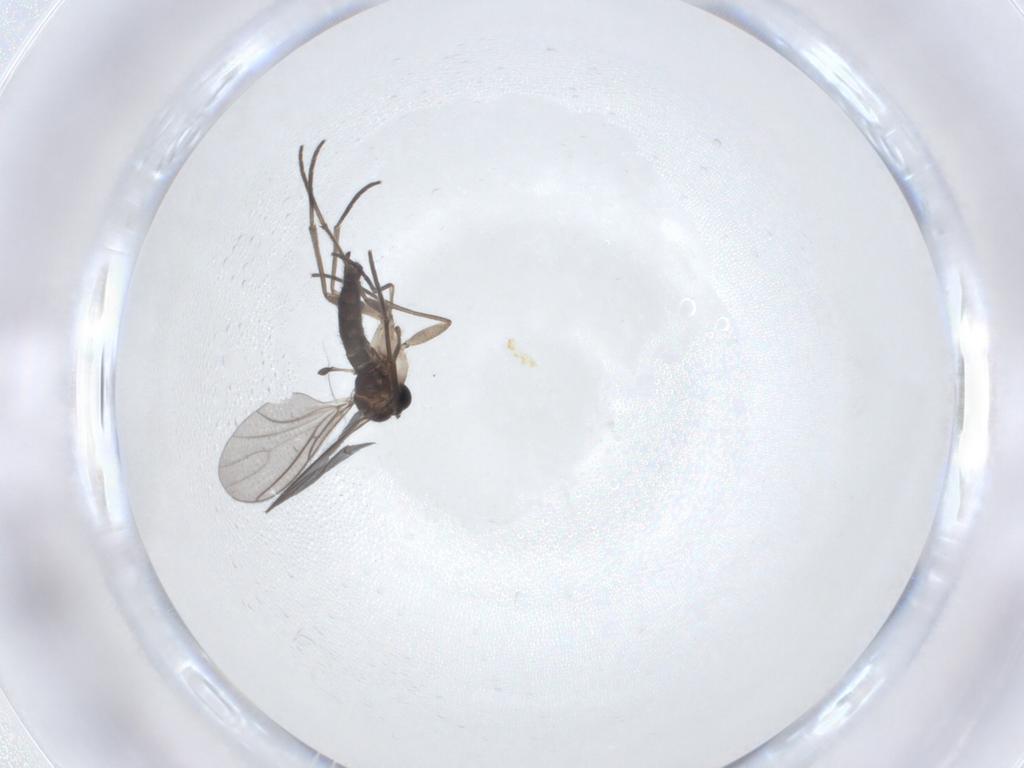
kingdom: Animalia
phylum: Arthropoda
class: Insecta
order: Diptera
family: Sciaridae
